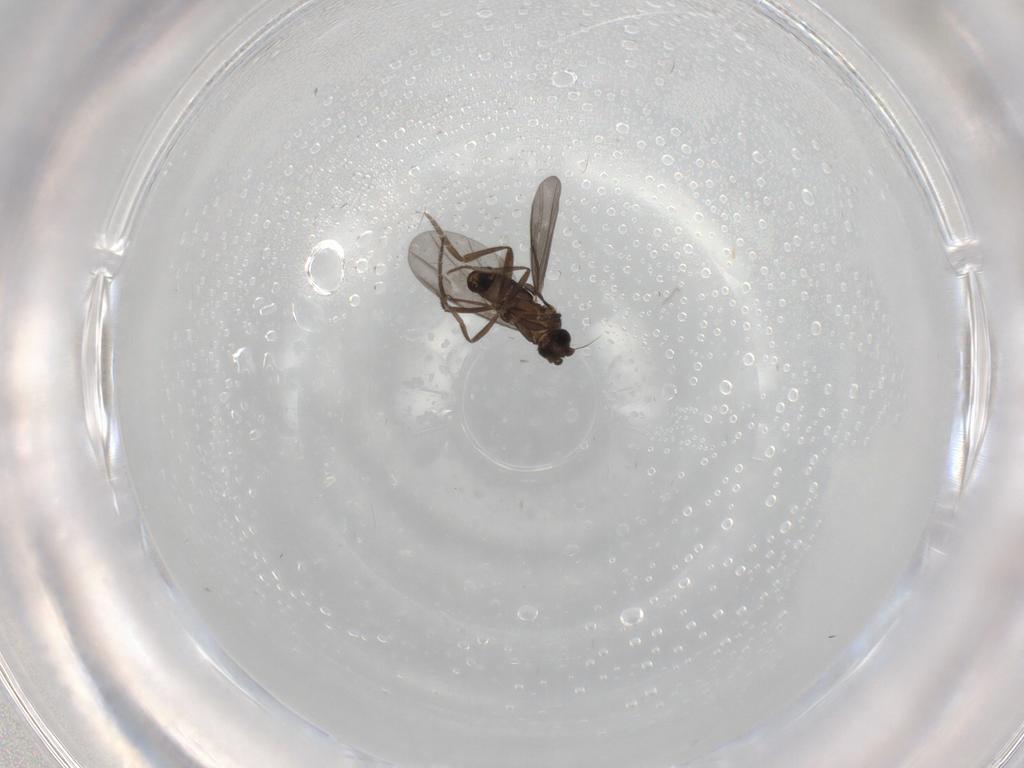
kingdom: Animalia
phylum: Arthropoda
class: Insecta
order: Diptera
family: Phoridae
